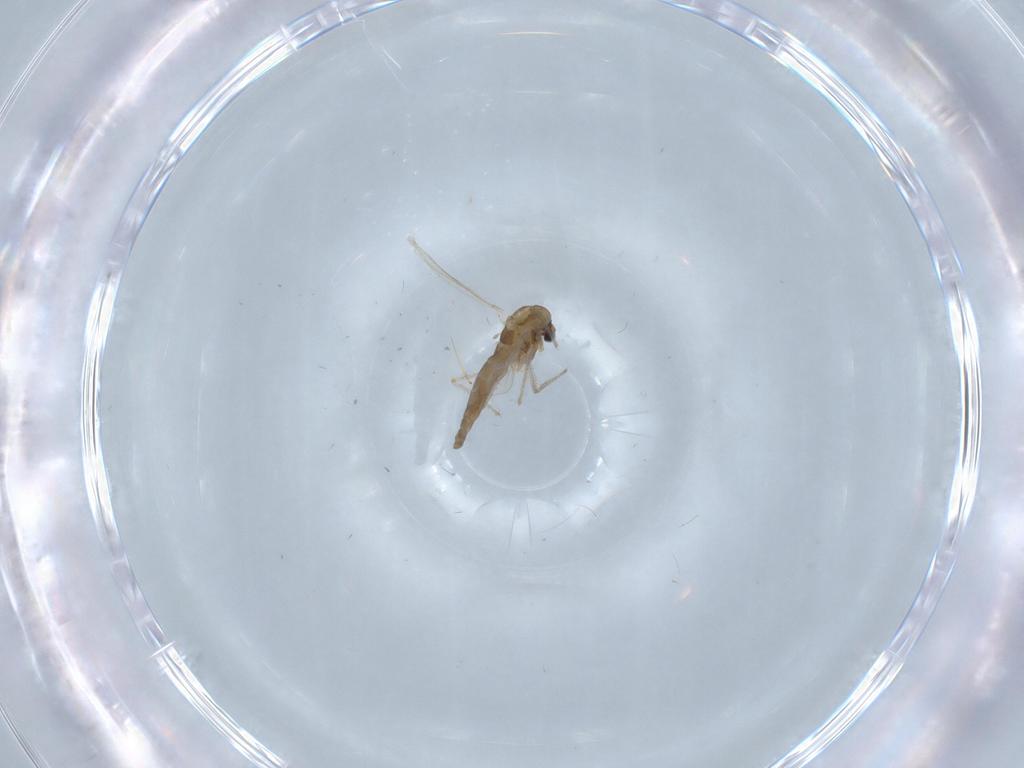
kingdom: Animalia
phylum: Arthropoda
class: Insecta
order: Diptera
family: Chironomidae
